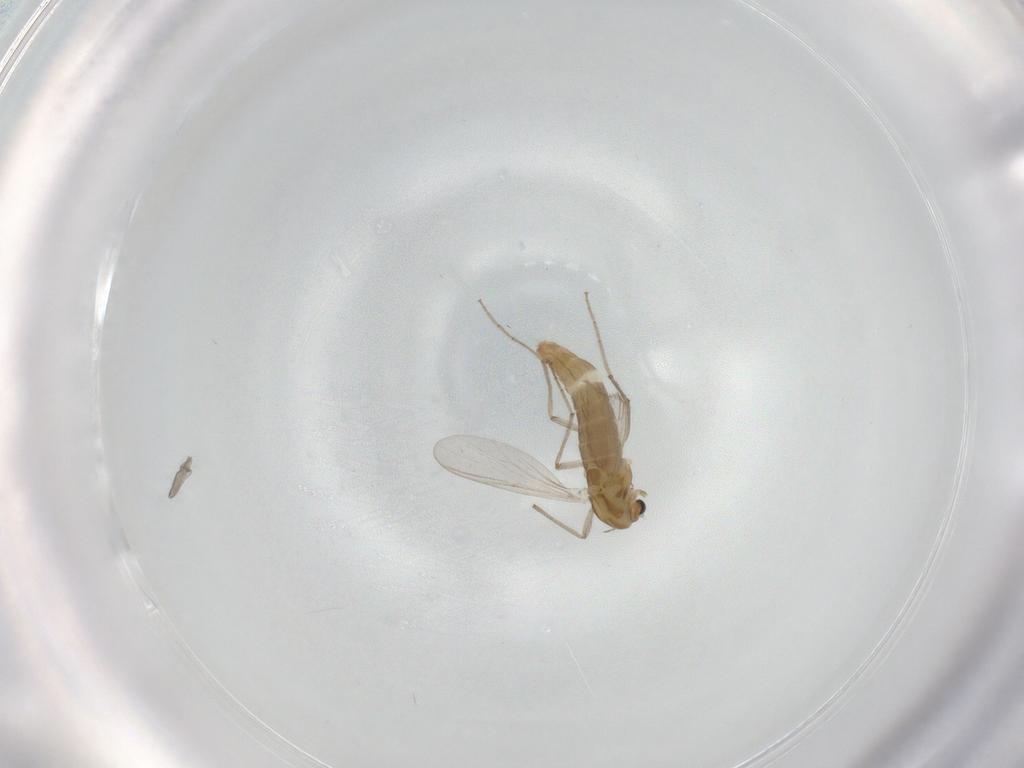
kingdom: Animalia
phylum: Arthropoda
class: Insecta
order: Diptera
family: Chironomidae
